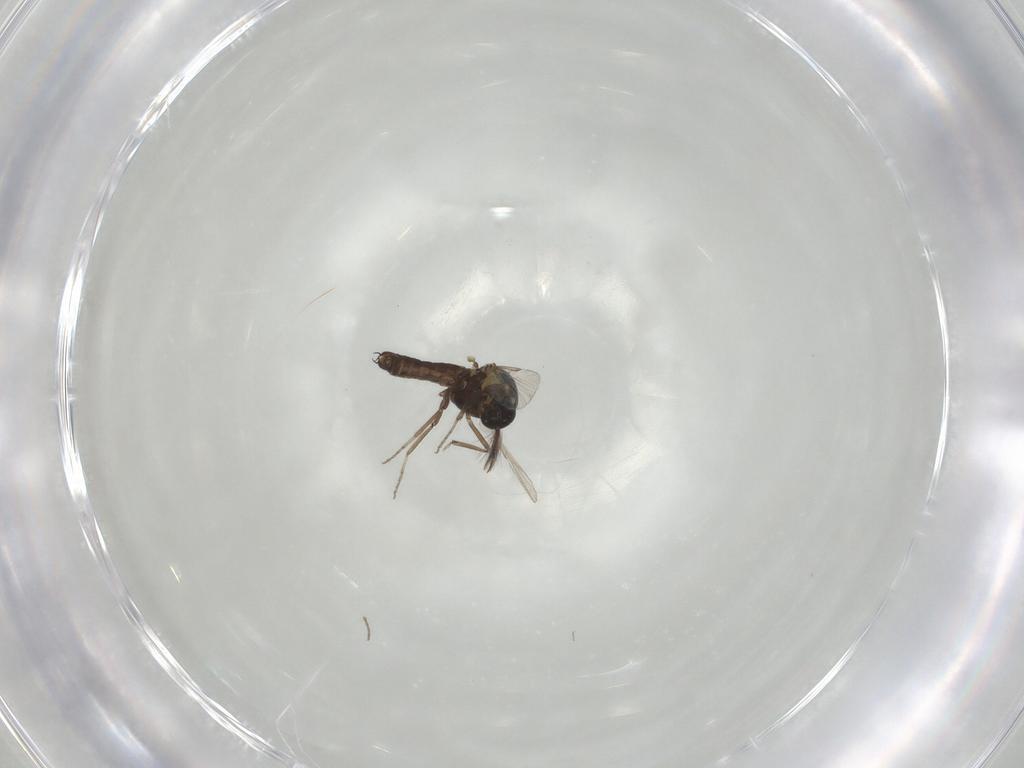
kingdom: Animalia
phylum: Arthropoda
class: Insecta
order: Diptera
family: Ceratopogonidae
